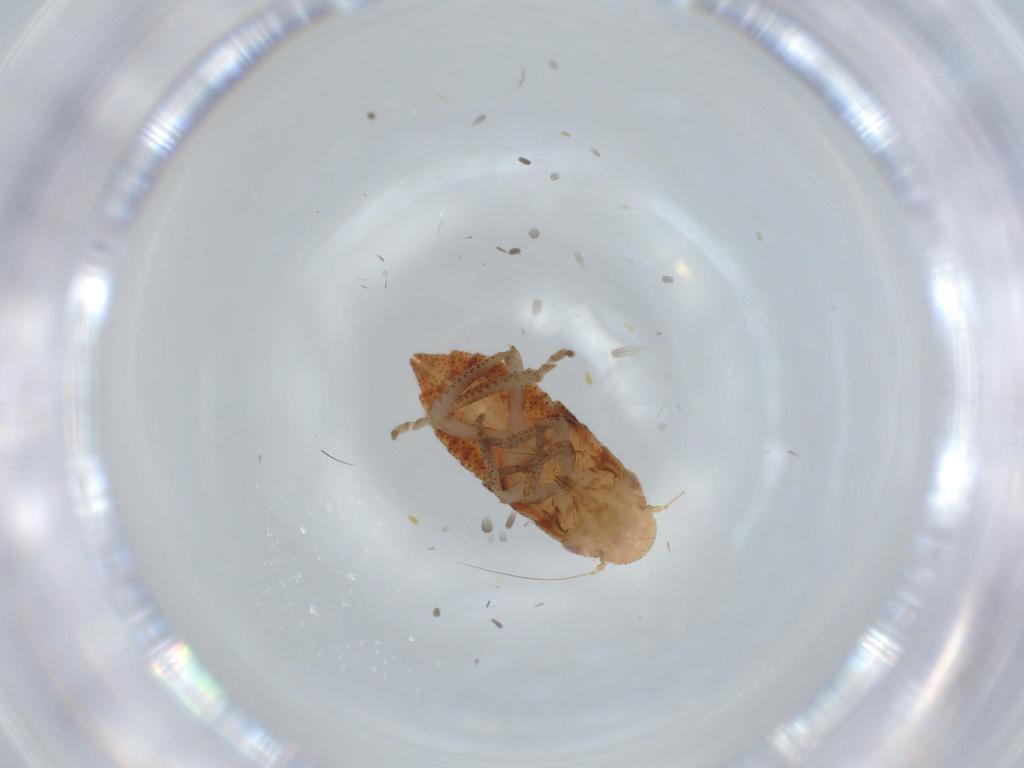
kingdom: Animalia
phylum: Arthropoda
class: Insecta
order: Hemiptera
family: Cicadellidae
